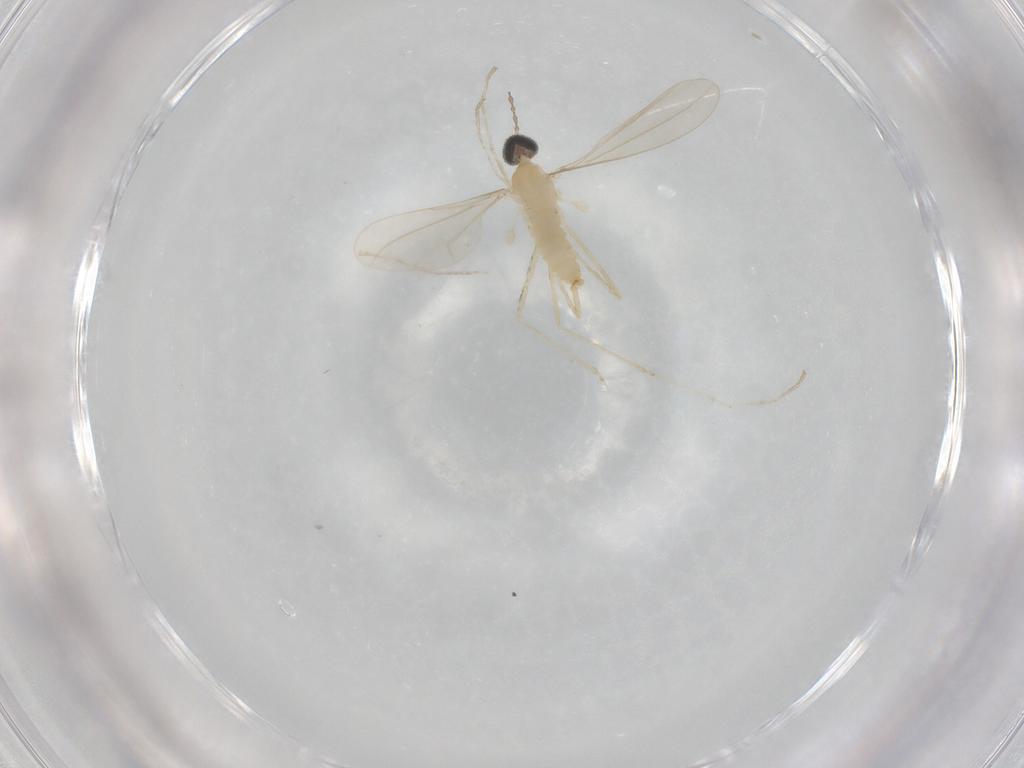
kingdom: Animalia
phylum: Arthropoda
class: Insecta
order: Diptera
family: Cecidomyiidae
